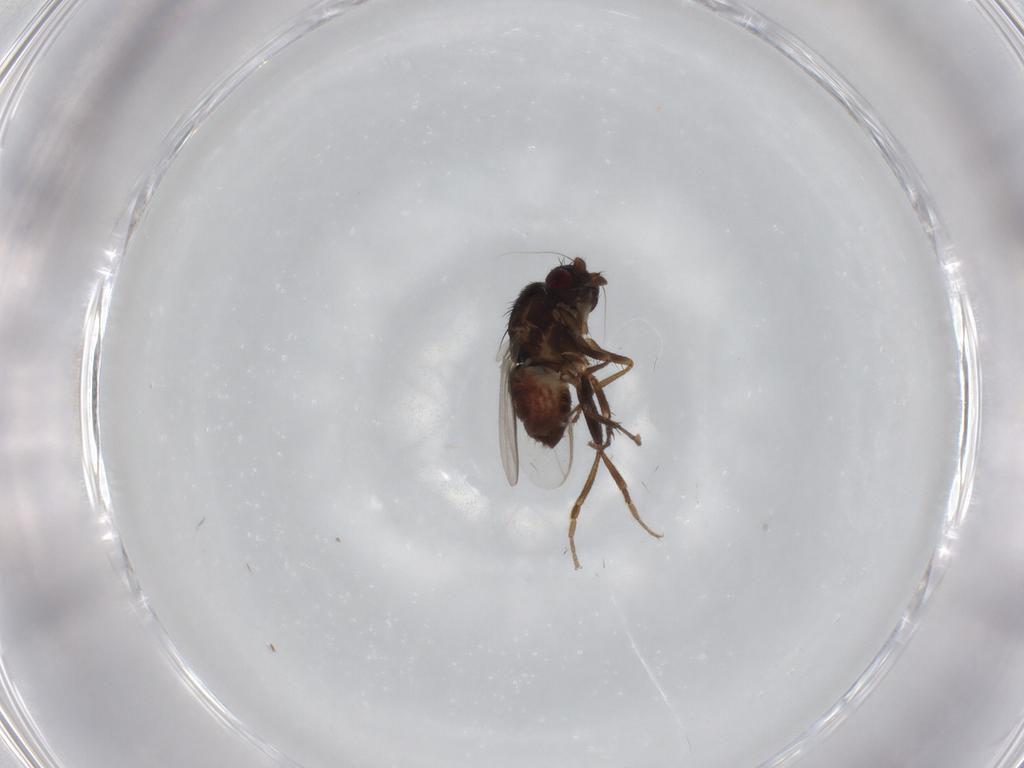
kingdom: Animalia
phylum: Arthropoda
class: Insecta
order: Diptera
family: Sphaeroceridae
